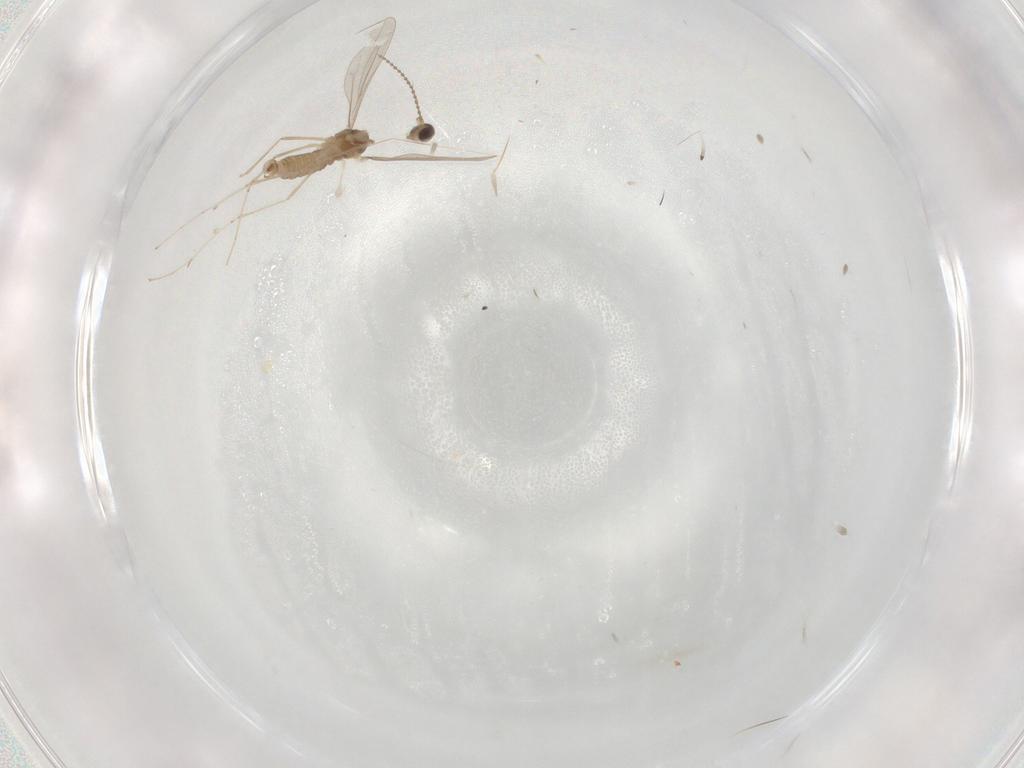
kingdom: Animalia
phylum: Arthropoda
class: Insecta
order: Diptera
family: Cecidomyiidae
